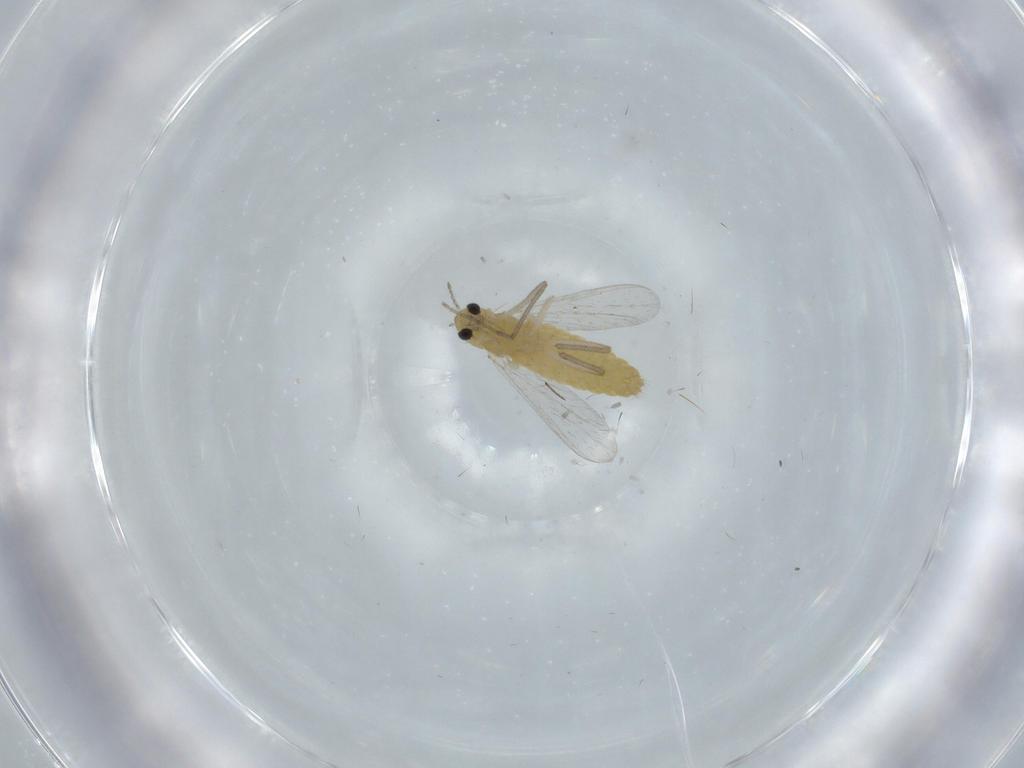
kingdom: Animalia
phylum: Arthropoda
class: Insecta
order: Diptera
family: Chironomidae
